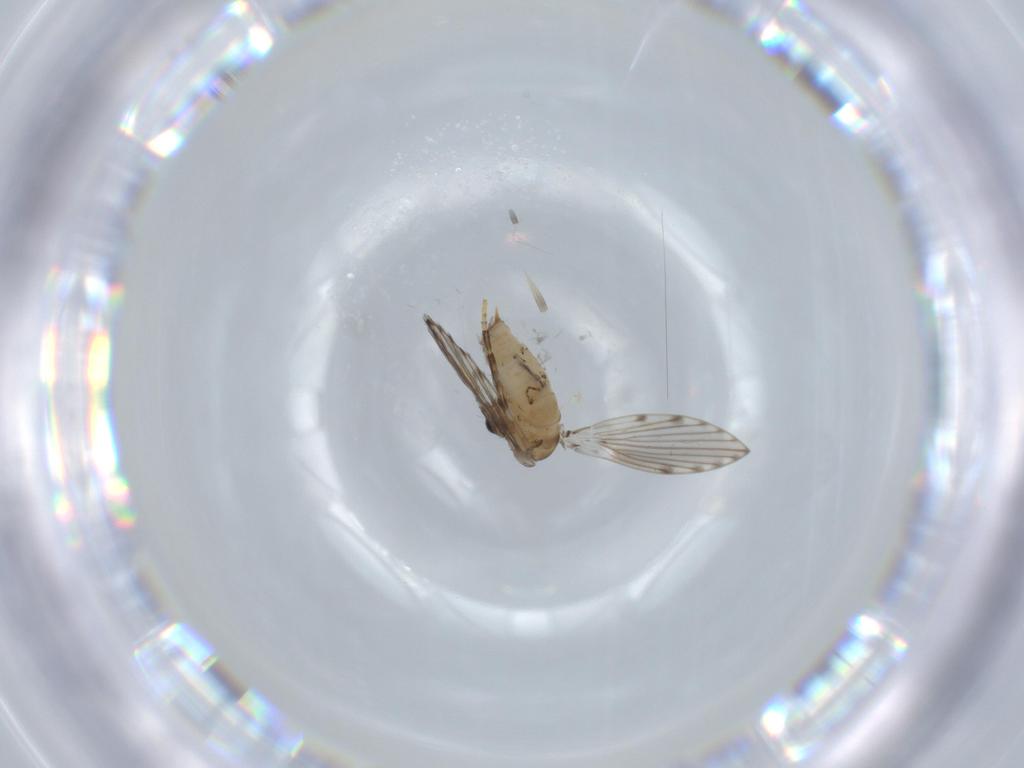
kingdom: Animalia
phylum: Arthropoda
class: Insecta
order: Diptera
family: Psychodidae
